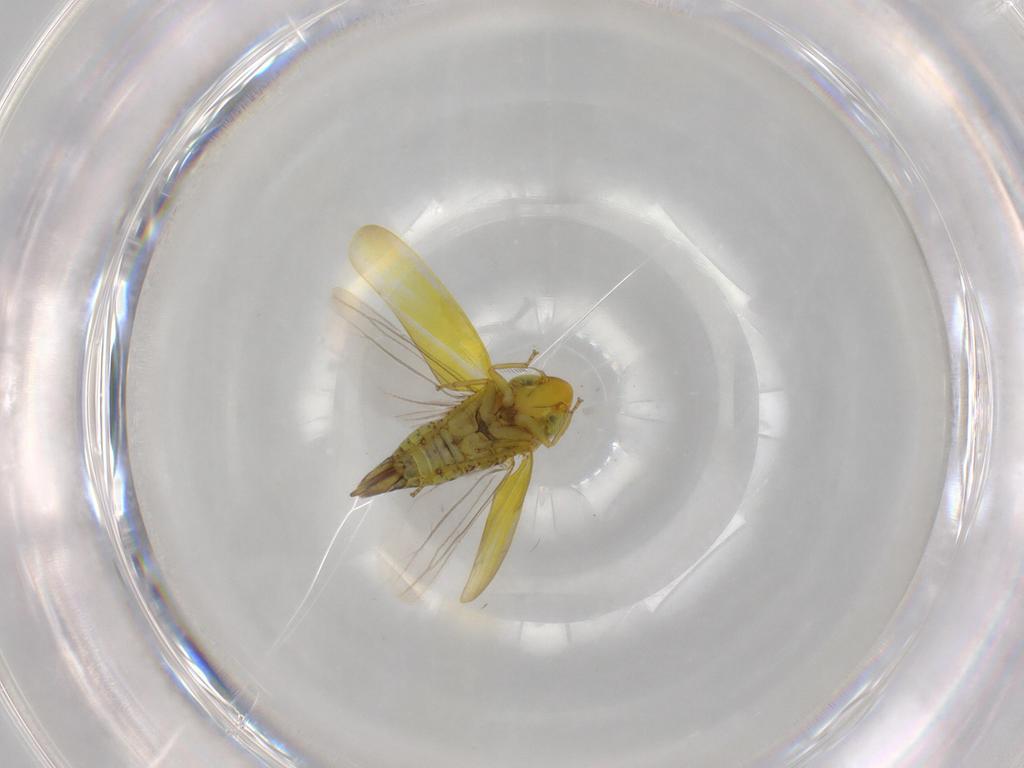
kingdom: Animalia
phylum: Arthropoda
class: Insecta
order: Hemiptera
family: Cicadellidae
